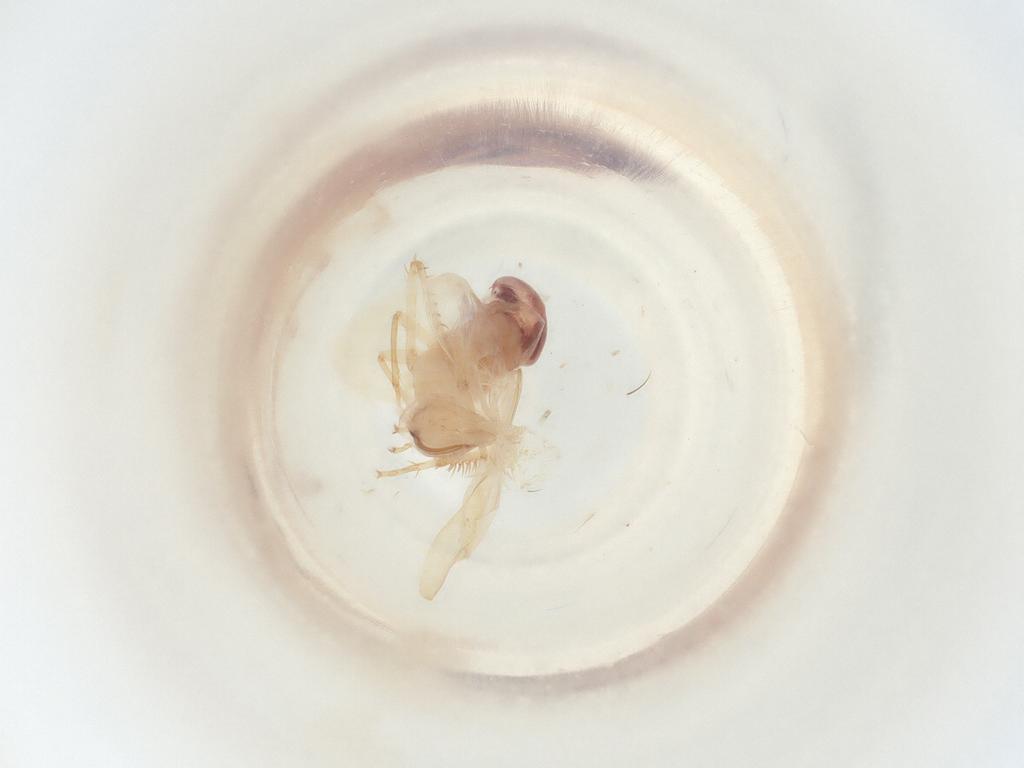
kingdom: Animalia
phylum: Arthropoda
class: Insecta
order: Hemiptera
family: Cicadellidae
